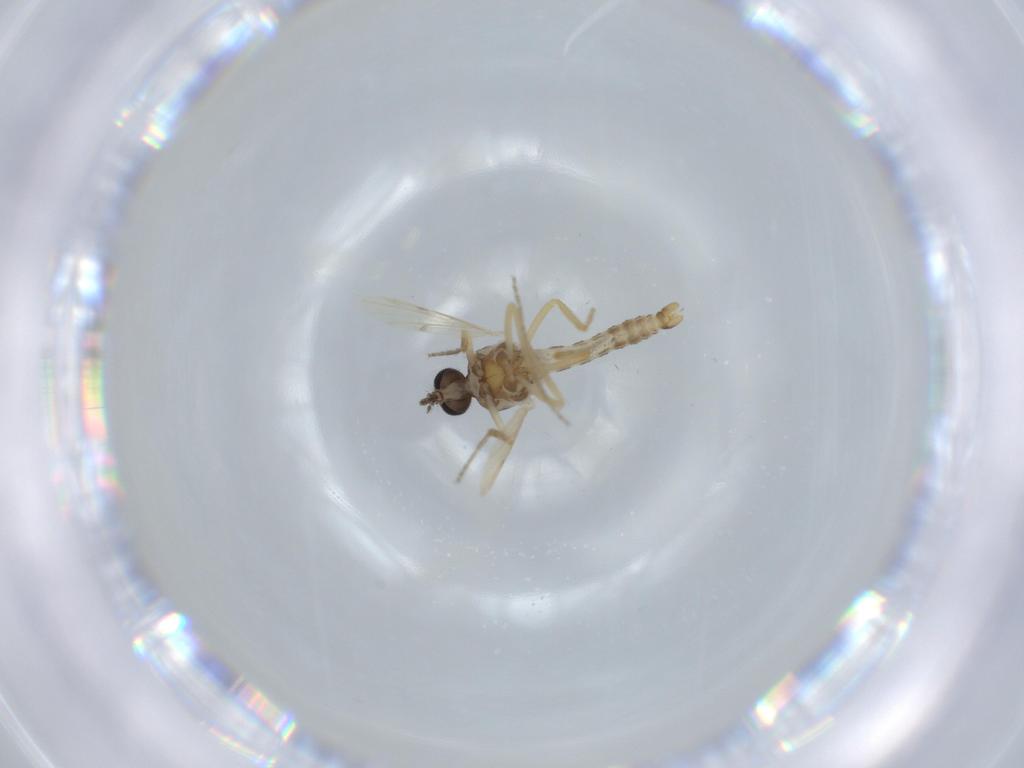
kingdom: Animalia
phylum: Arthropoda
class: Insecta
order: Diptera
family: Ceratopogonidae
